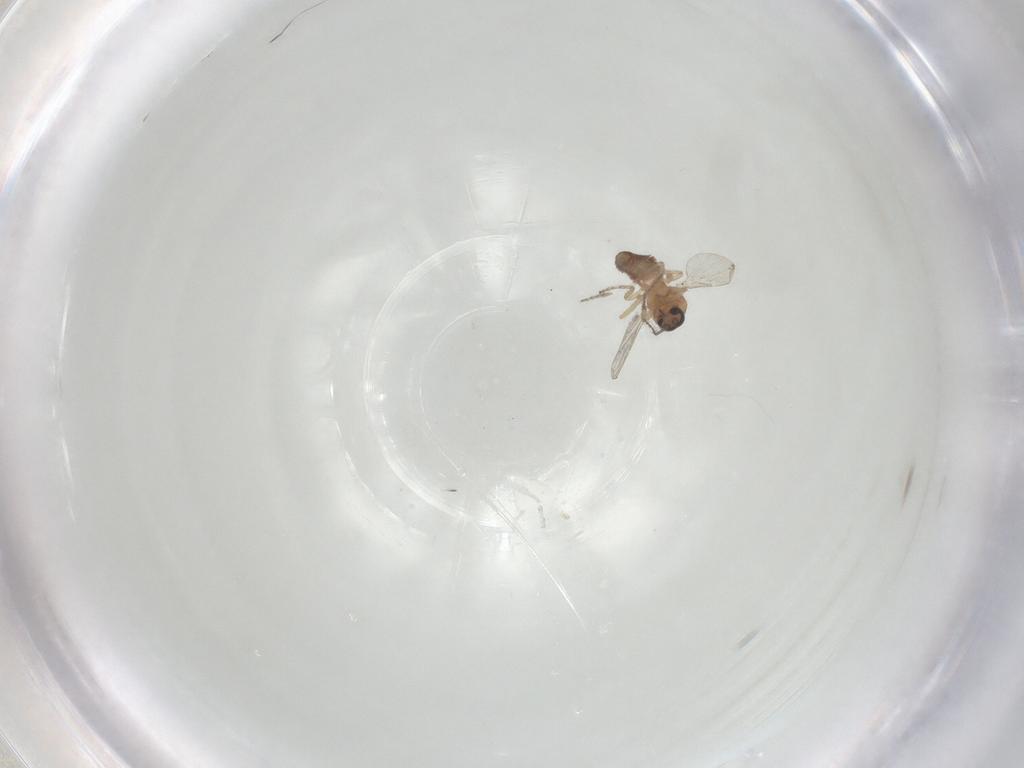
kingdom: Animalia
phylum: Arthropoda
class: Insecta
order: Diptera
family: Ceratopogonidae
